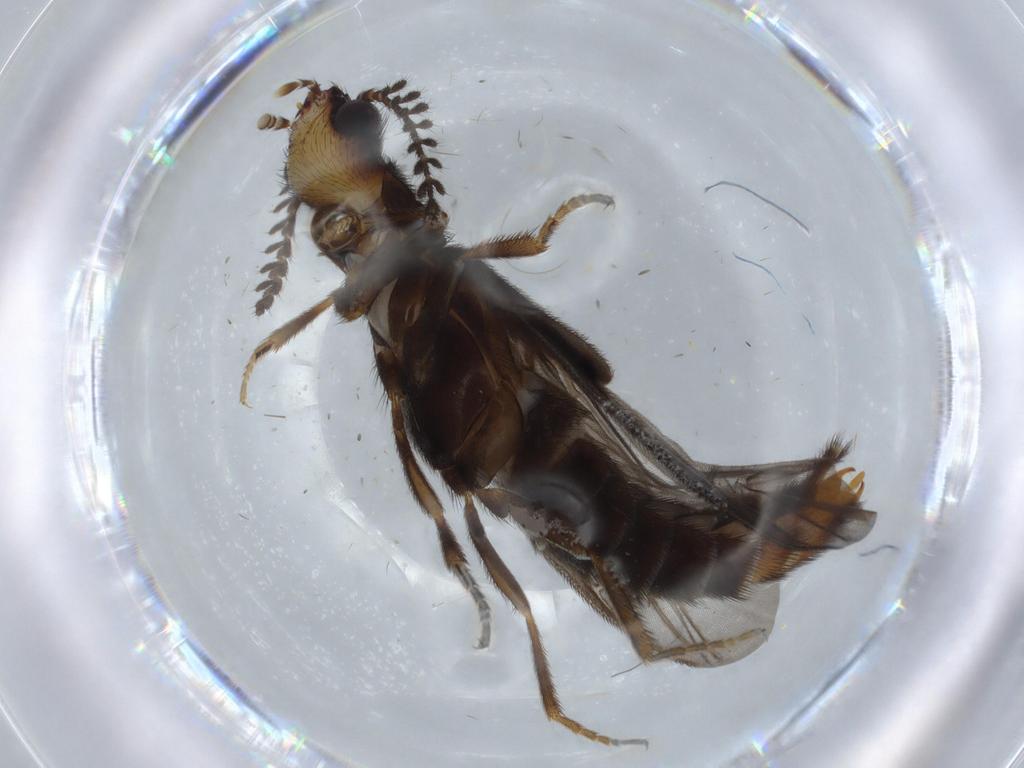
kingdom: Animalia
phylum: Arthropoda
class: Insecta
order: Coleoptera
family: Phengodidae
